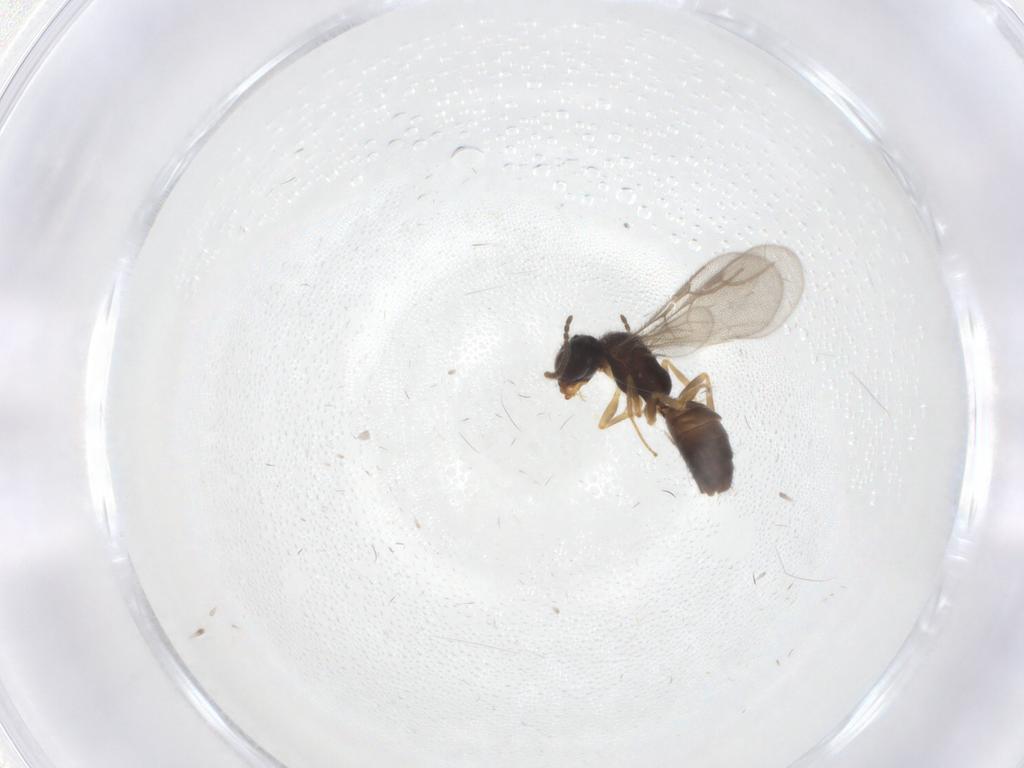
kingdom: Animalia
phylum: Arthropoda
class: Insecta
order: Hymenoptera
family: Bethylidae
